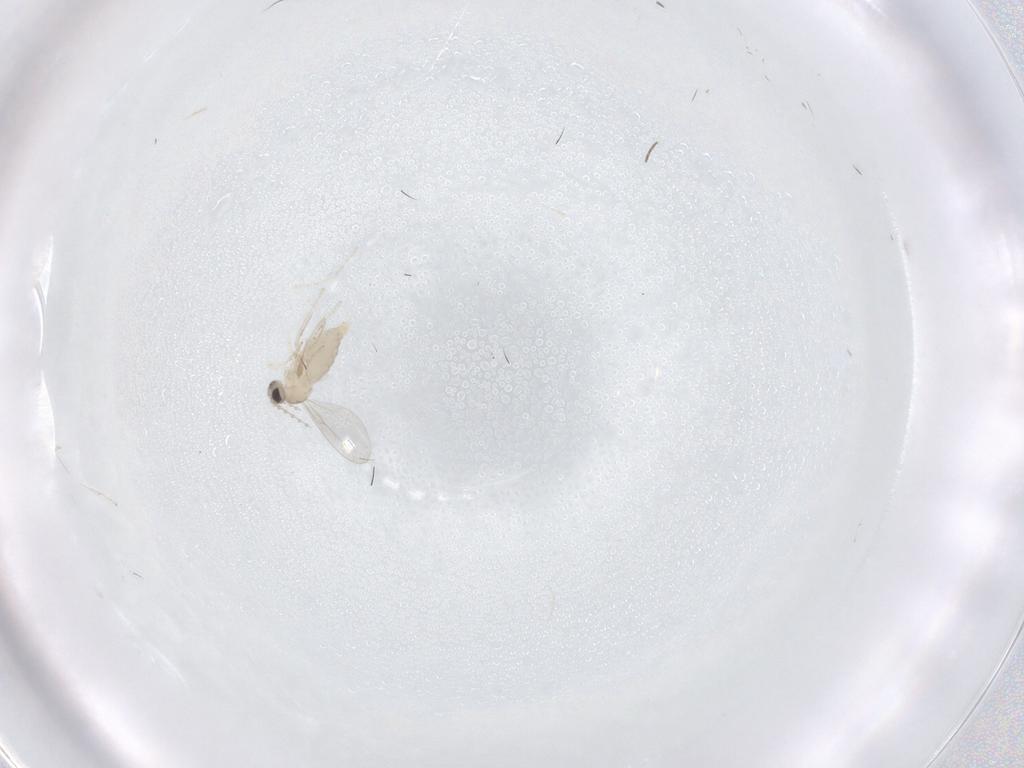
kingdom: Animalia
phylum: Arthropoda
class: Insecta
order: Diptera
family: Cecidomyiidae
